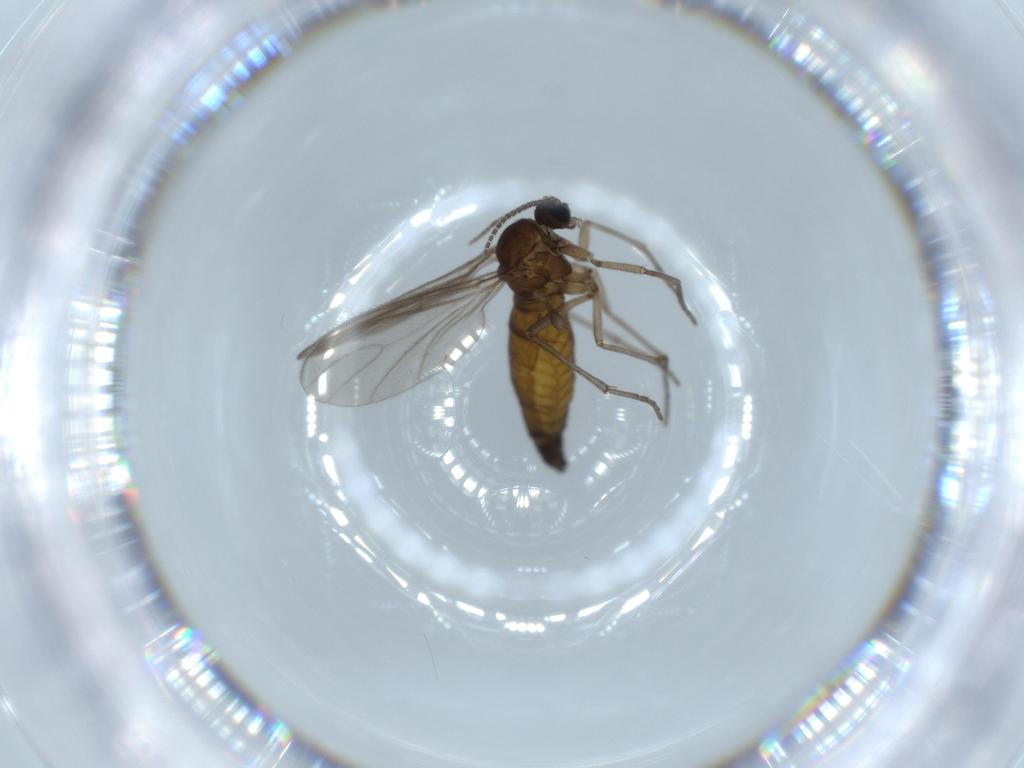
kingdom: Animalia
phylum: Arthropoda
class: Insecta
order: Diptera
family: Sciaridae
